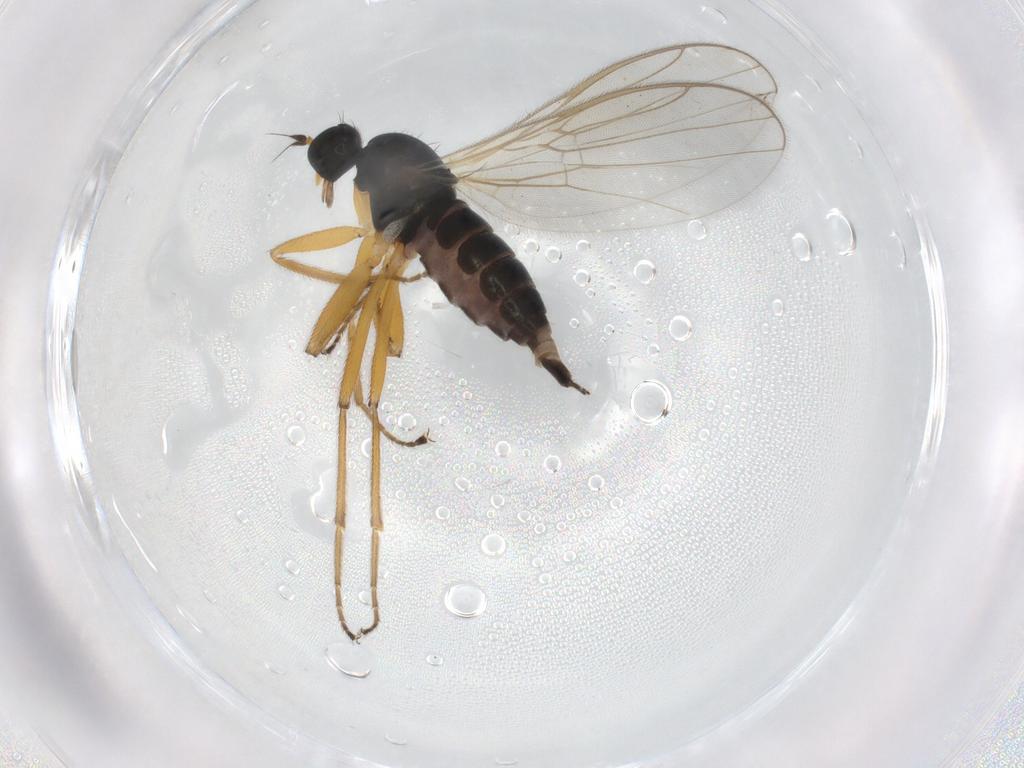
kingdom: Animalia
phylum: Arthropoda
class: Insecta
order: Diptera
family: Hybotidae
